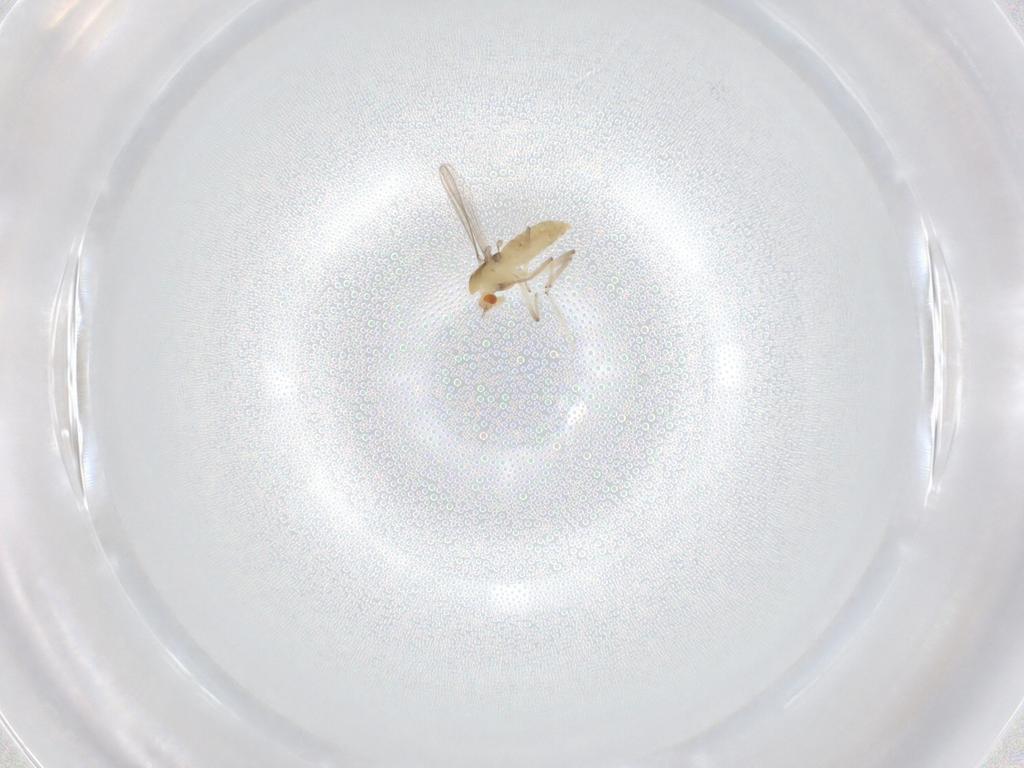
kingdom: Animalia
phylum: Arthropoda
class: Insecta
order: Diptera
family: Chironomidae
